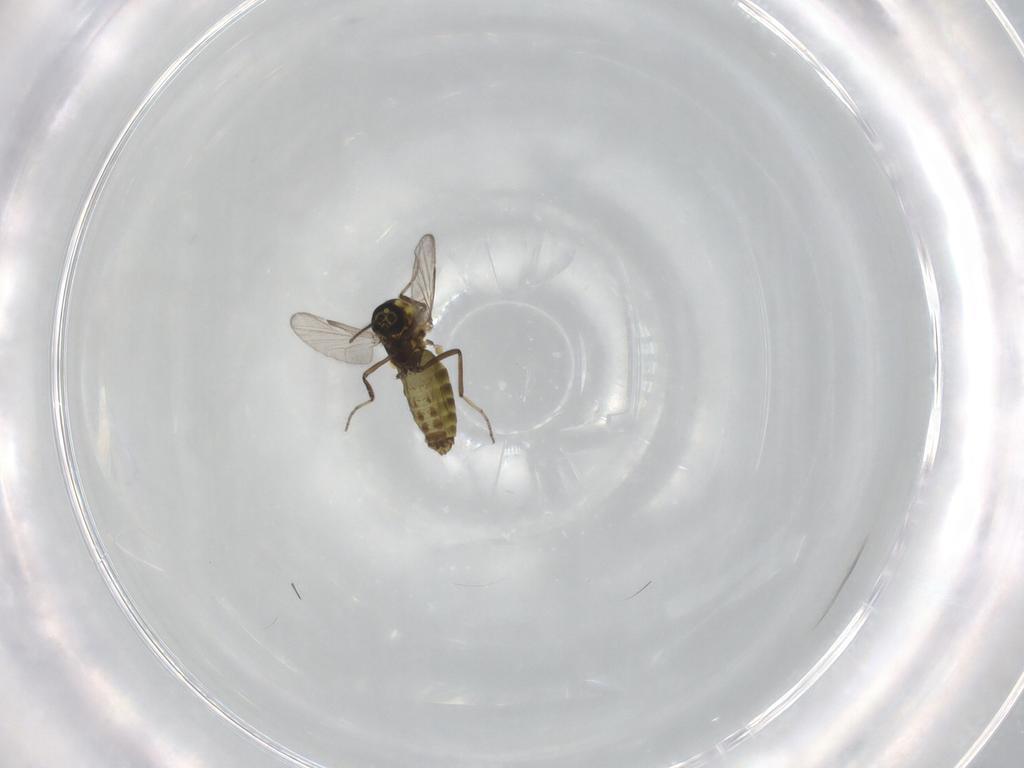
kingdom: Animalia
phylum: Arthropoda
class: Insecta
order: Diptera
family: Ceratopogonidae
